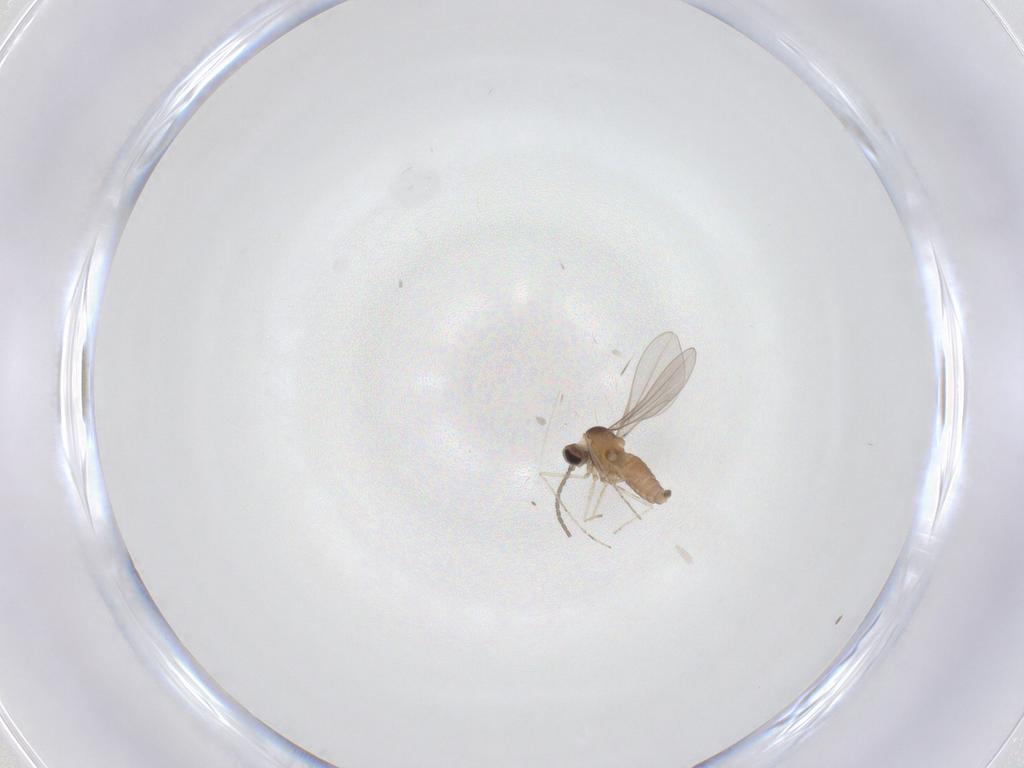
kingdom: Animalia
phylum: Arthropoda
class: Insecta
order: Diptera
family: Cecidomyiidae
